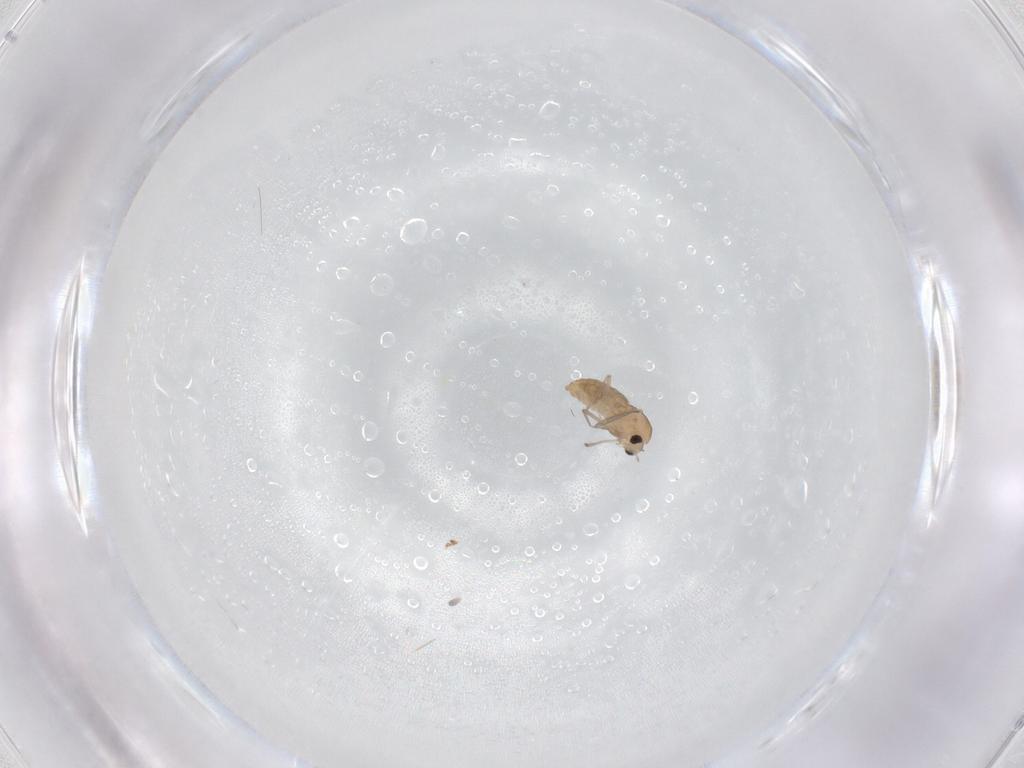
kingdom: Animalia
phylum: Arthropoda
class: Insecta
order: Diptera
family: Chironomidae
